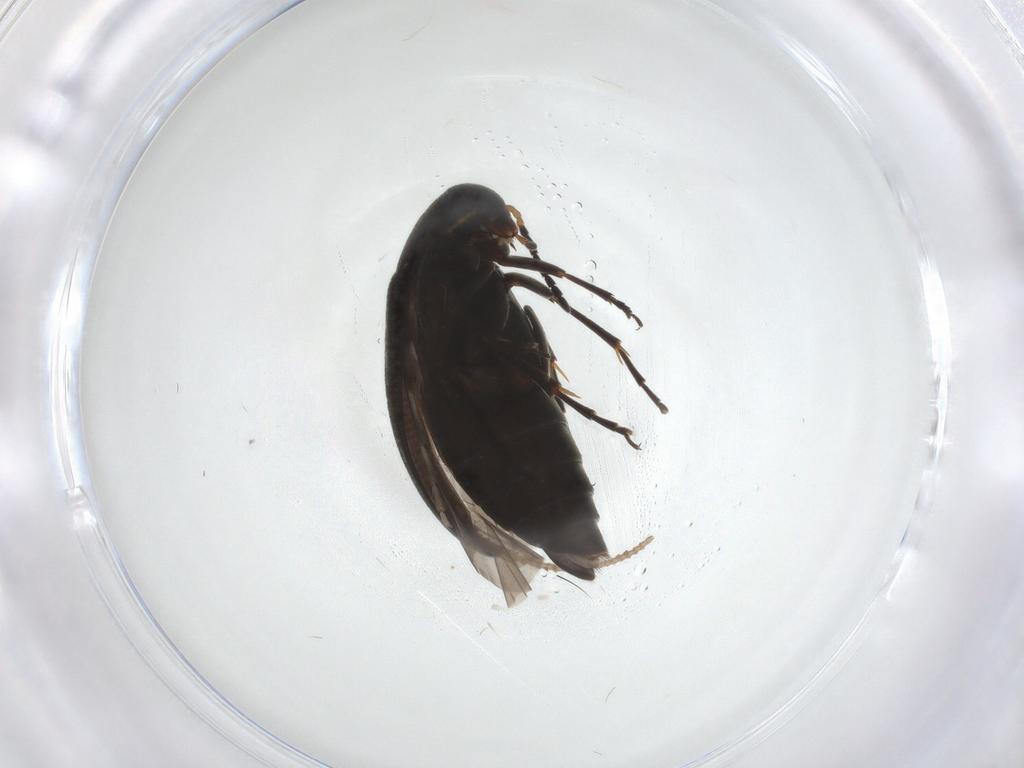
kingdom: Animalia
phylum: Arthropoda
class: Insecta
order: Coleoptera
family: Scraptiidae
